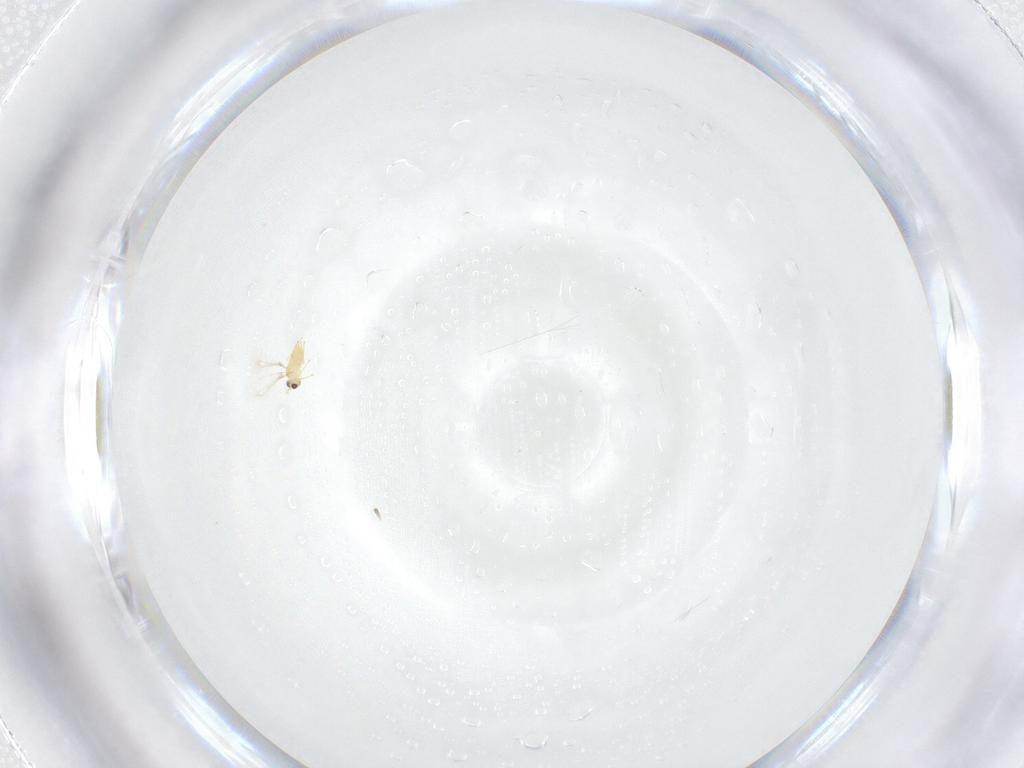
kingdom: Animalia
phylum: Arthropoda
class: Insecta
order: Hymenoptera
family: Mymaridae
